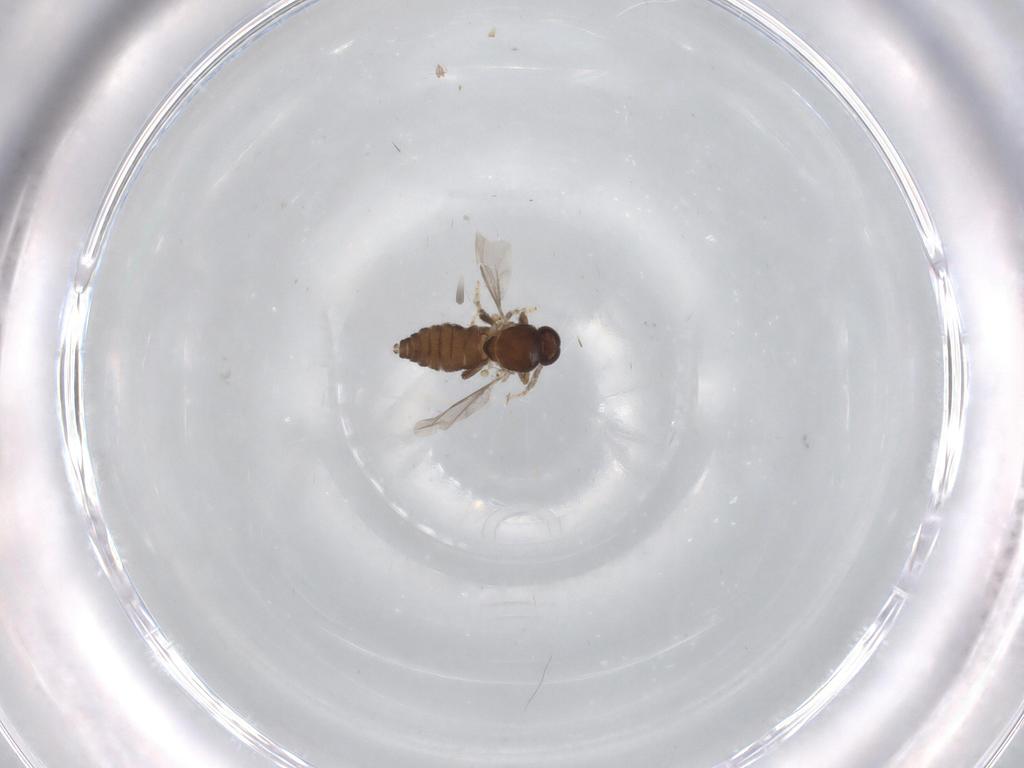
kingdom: Animalia
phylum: Arthropoda
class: Insecta
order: Diptera
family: Ceratopogonidae
